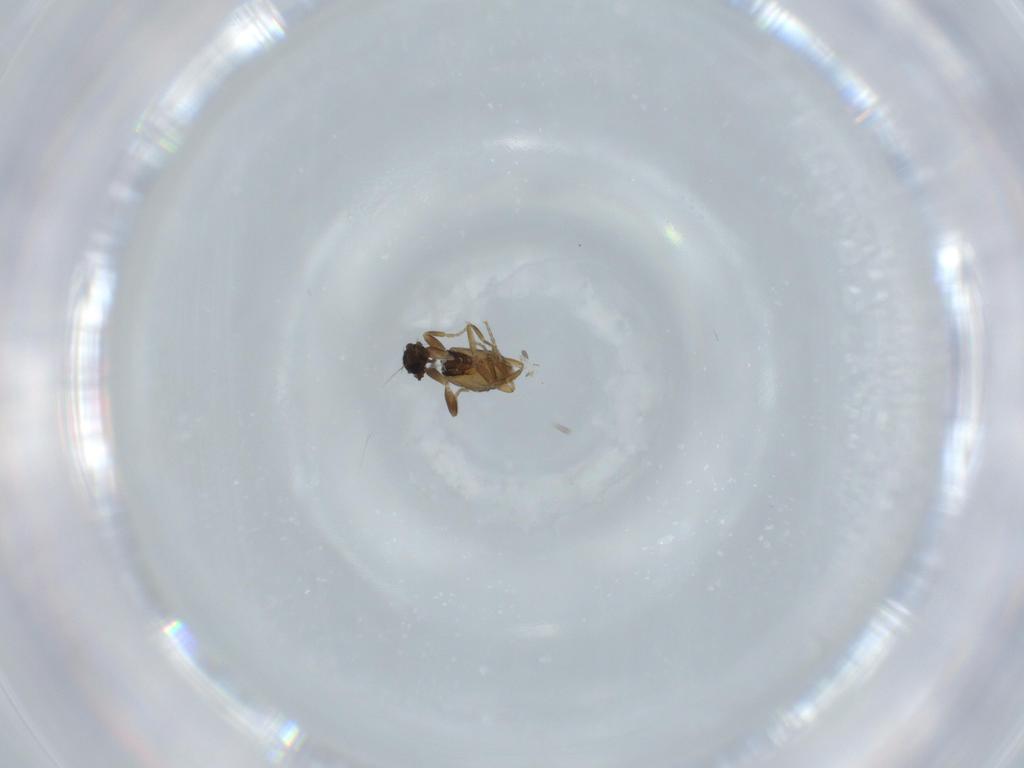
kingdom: Animalia
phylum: Arthropoda
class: Insecta
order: Diptera
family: Phoridae
